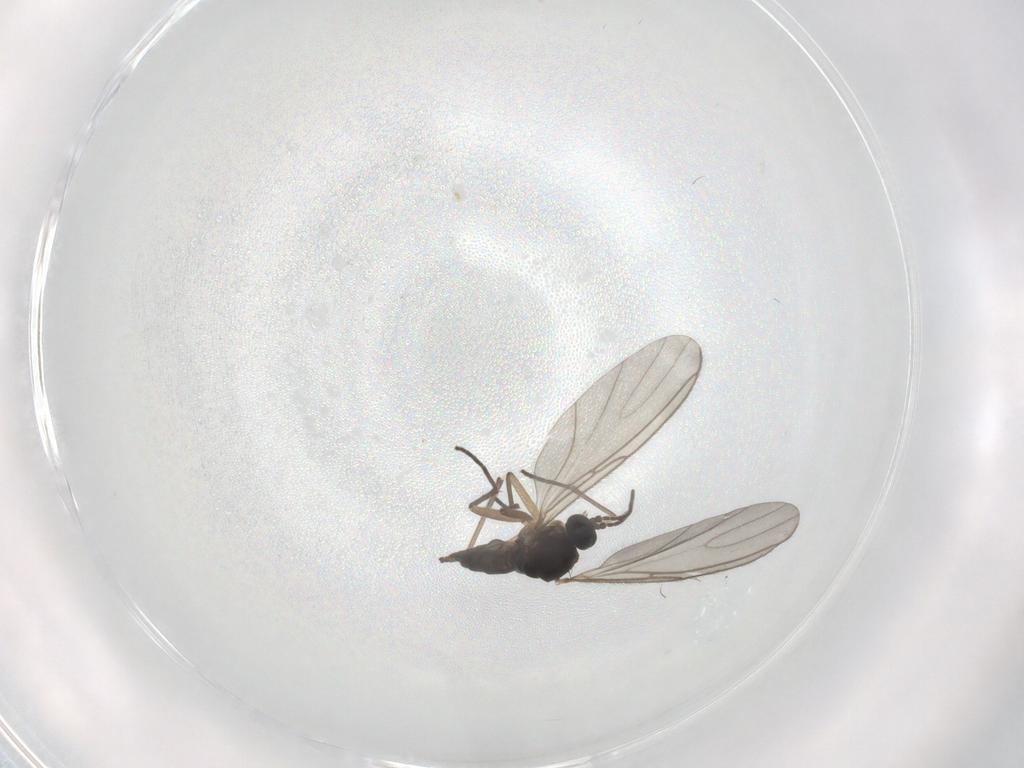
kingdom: Animalia
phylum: Arthropoda
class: Insecta
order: Diptera
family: Sciaridae
